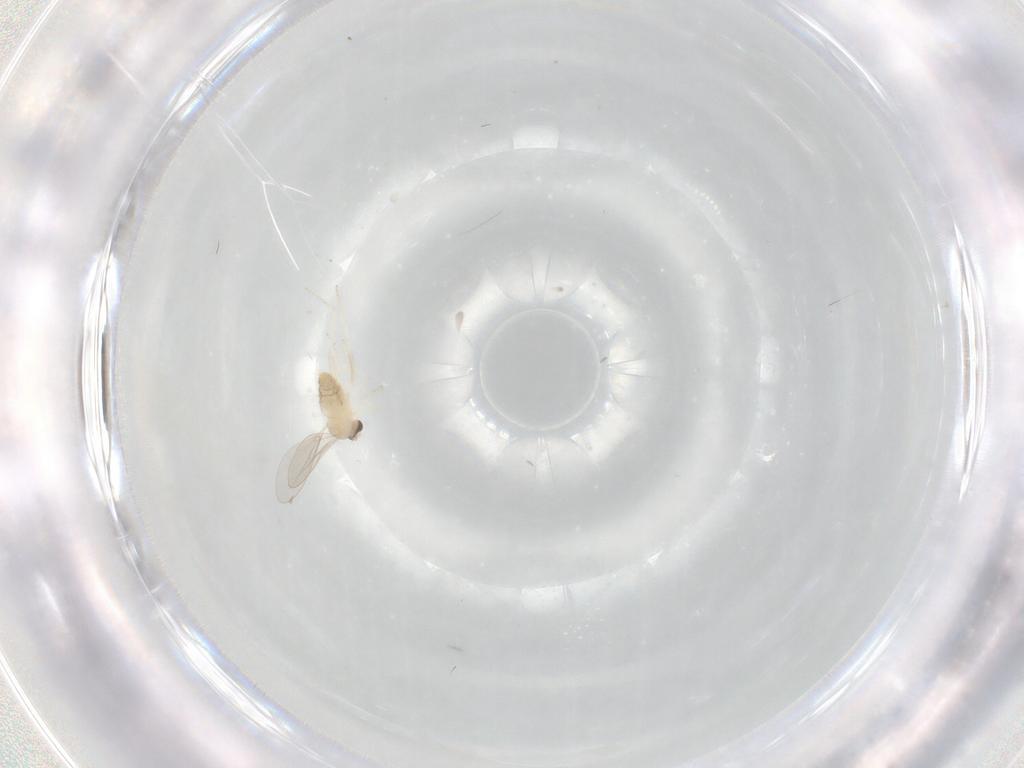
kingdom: Animalia
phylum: Arthropoda
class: Insecta
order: Diptera
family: Cecidomyiidae
